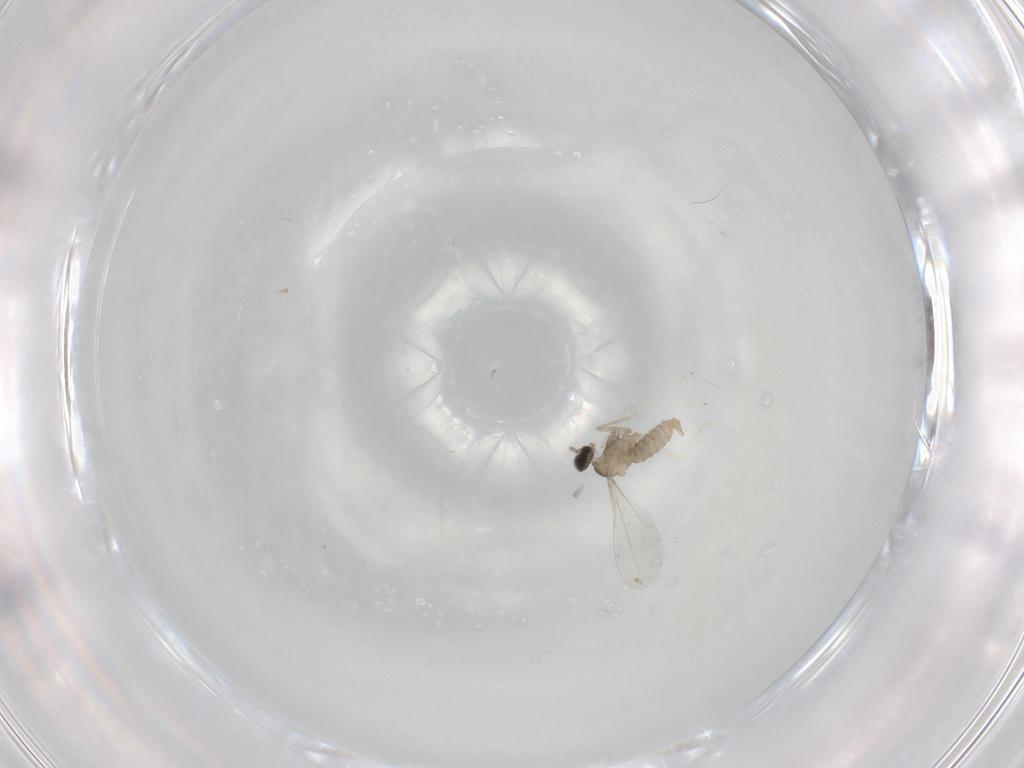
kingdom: Animalia
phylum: Arthropoda
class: Insecta
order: Diptera
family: Cecidomyiidae
